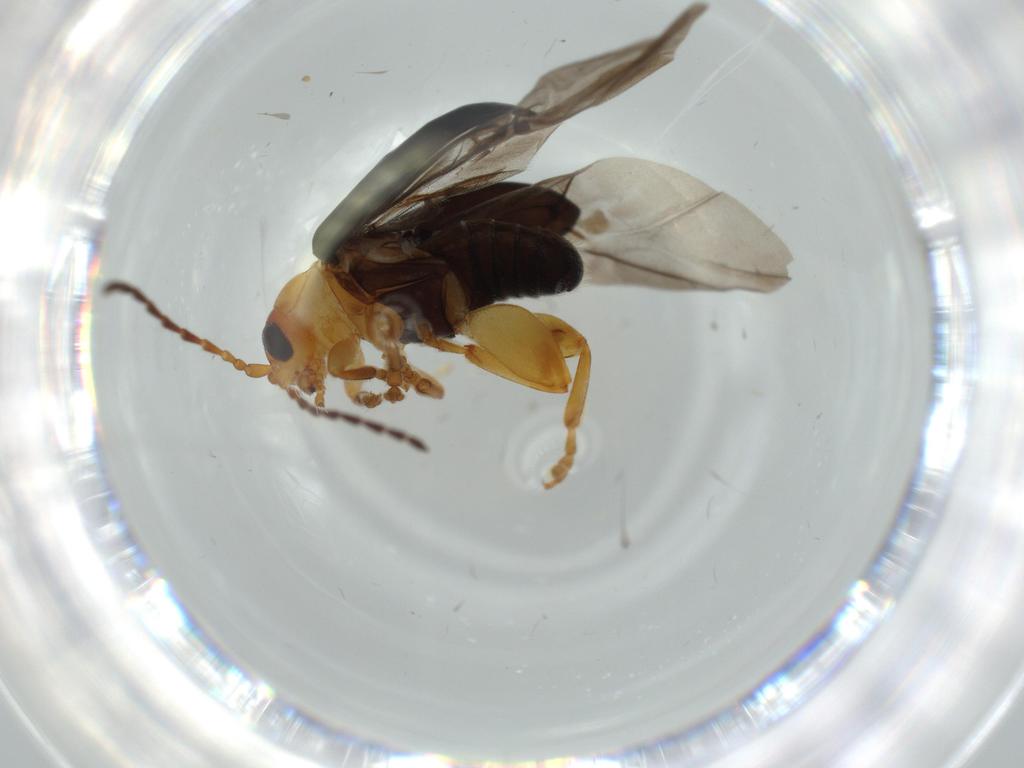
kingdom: Animalia
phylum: Arthropoda
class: Insecta
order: Coleoptera
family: Chrysomelidae
